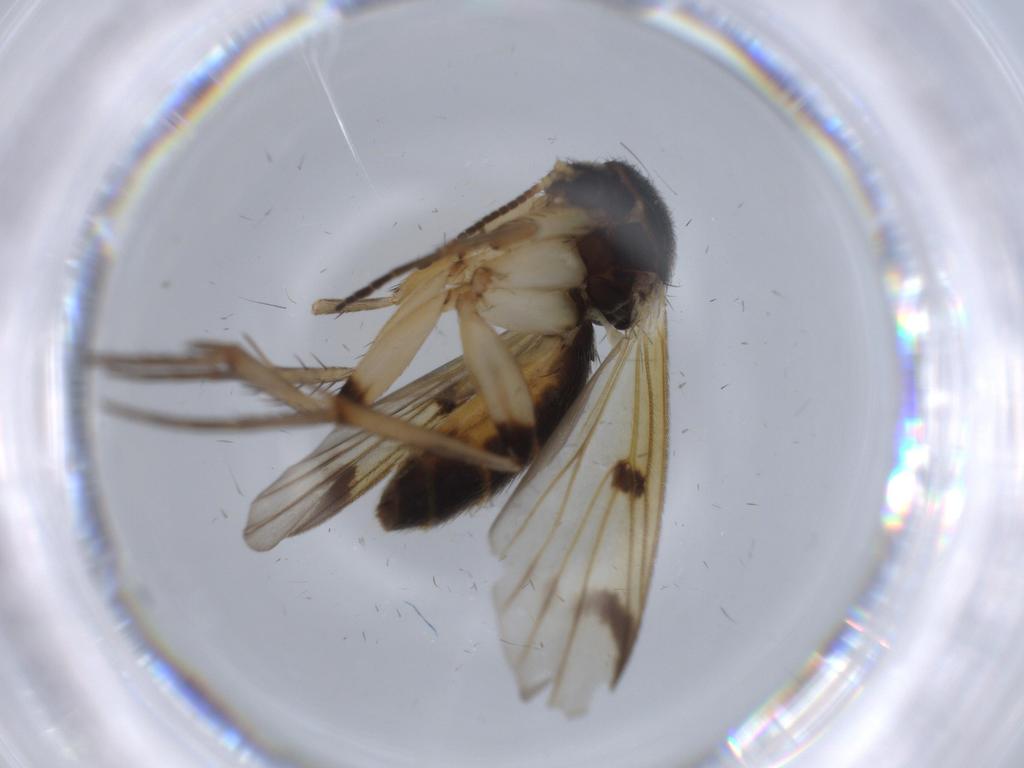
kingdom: Animalia
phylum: Arthropoda
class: Insecta
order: Diptera
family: Mycetophilidae
